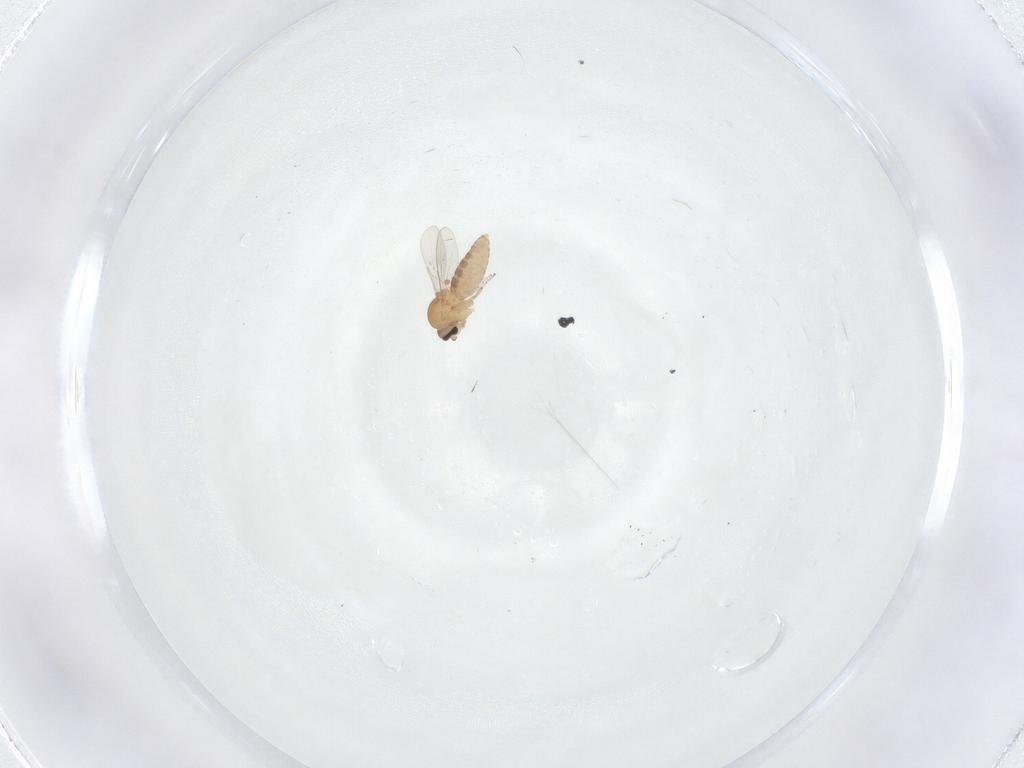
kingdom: Animalia
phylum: Arthropoda
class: Insecta
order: Diptera
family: Ceratopogonidae
